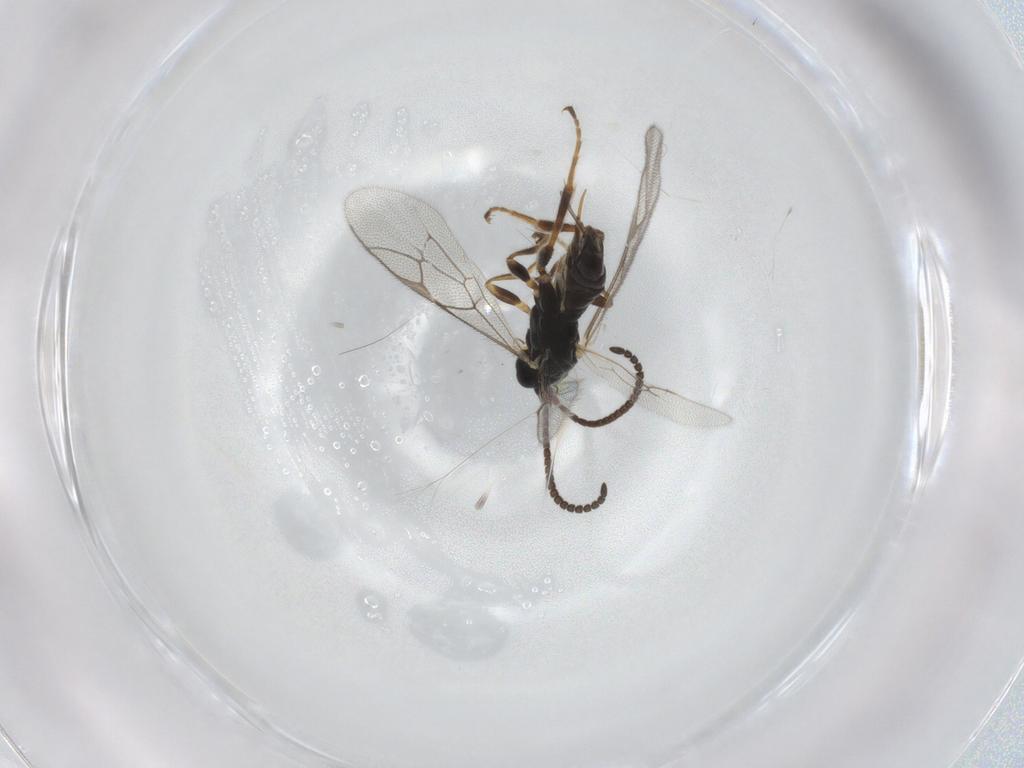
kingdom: Animalia
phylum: Arthropoda
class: Insecta
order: Hymenoptera
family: Ichneumonidae
